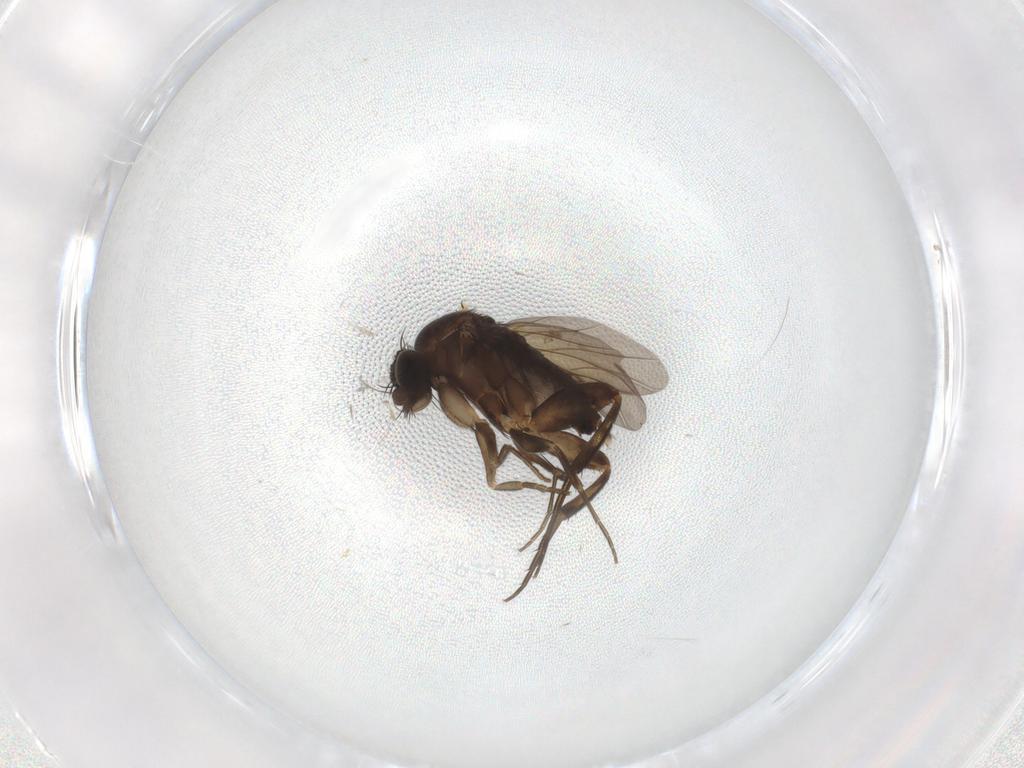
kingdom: Animalia
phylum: Arthropoda
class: Insecta
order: Diptera
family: Phoridae
